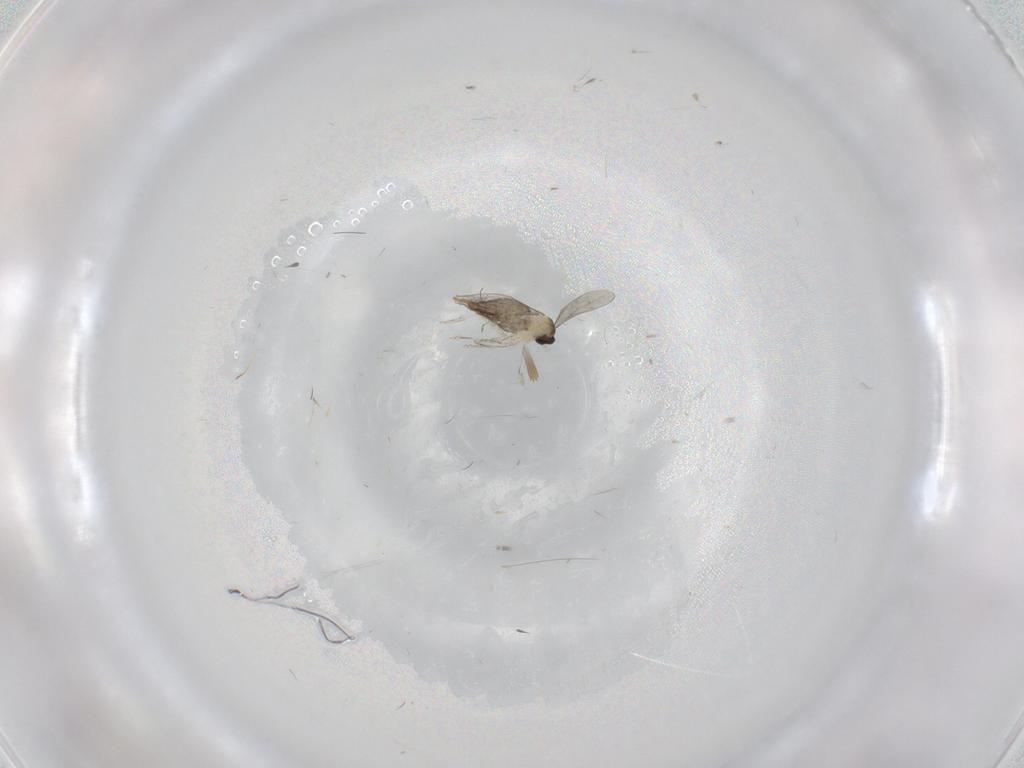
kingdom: Animalia
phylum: Arthropoda
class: Insecta
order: Diptera
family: Cecidomyiidae
